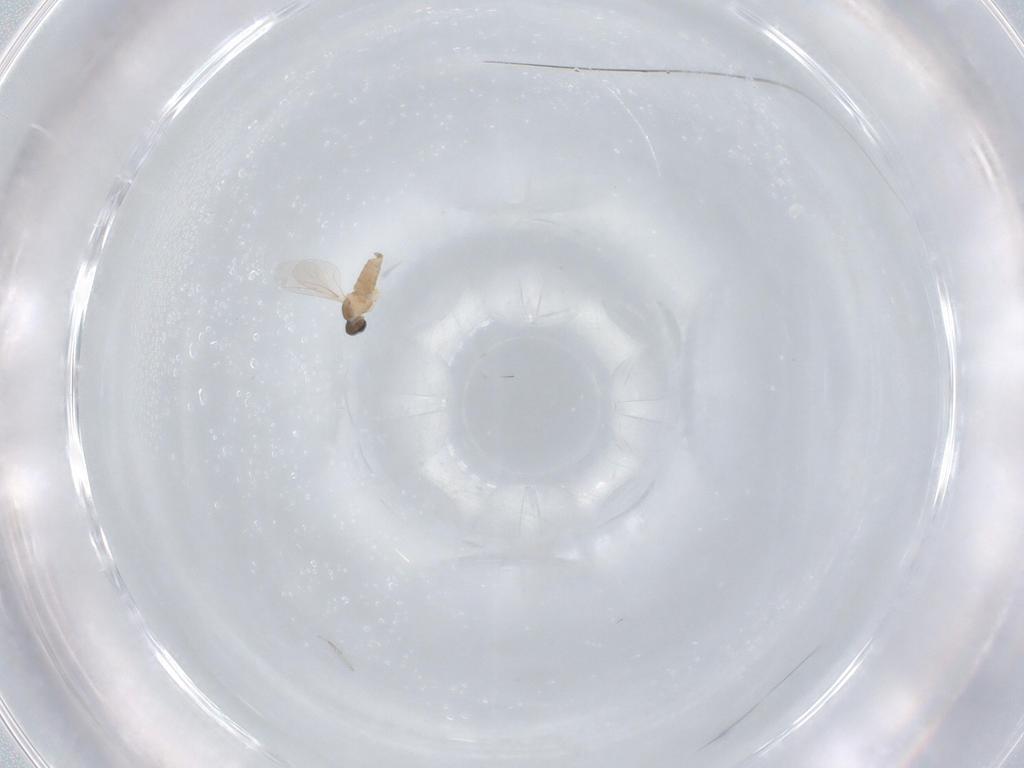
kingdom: Animalia
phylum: Arthropoda
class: Insecta
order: Diptera
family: Cecidomyiidae
